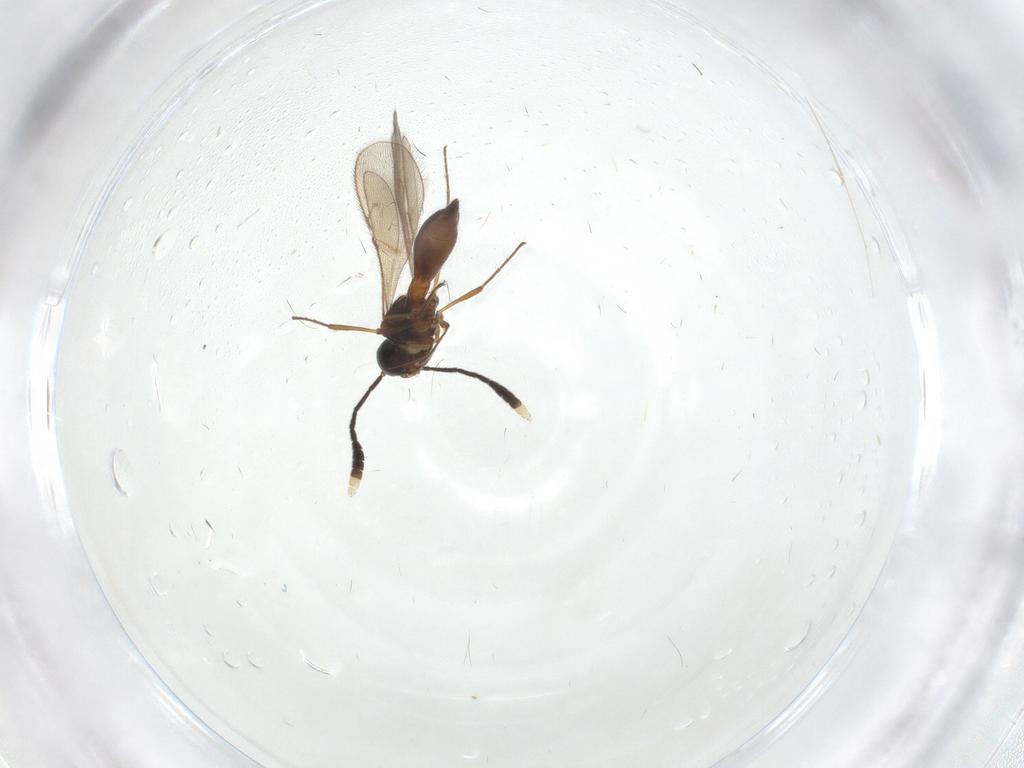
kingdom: Animalia
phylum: Arthropoda
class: Insecta
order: Hymenoptera
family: Scelionidae
